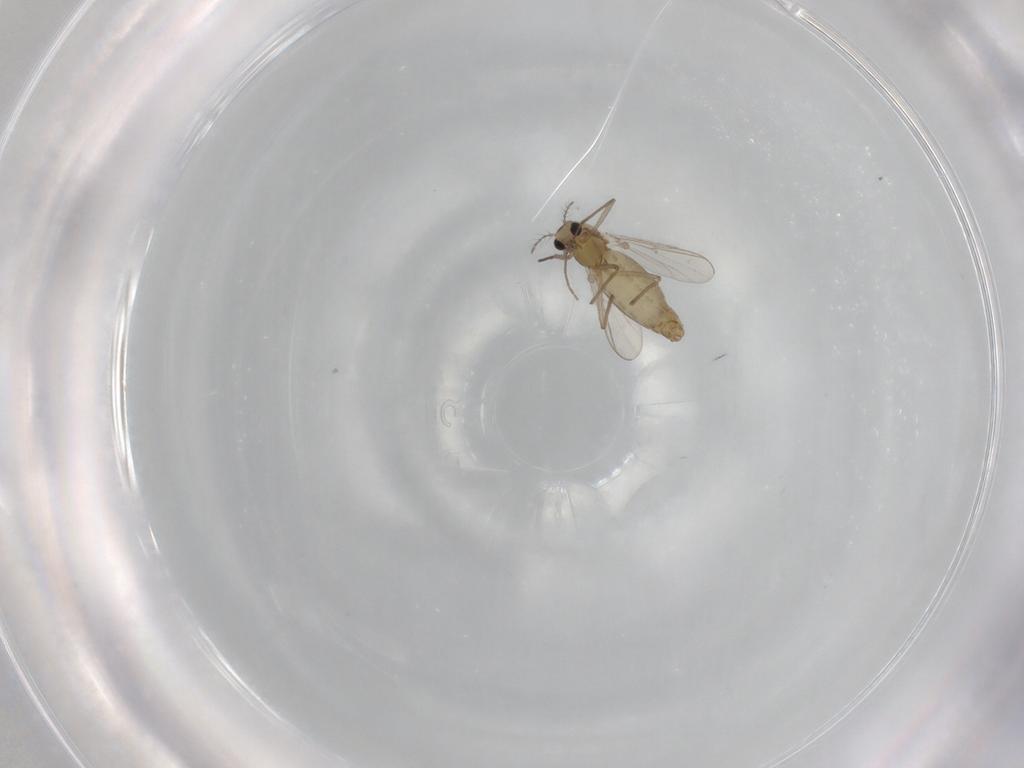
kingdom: Animalia
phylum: Arthropoda
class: Insecta
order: Diptera
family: Chironomidae
